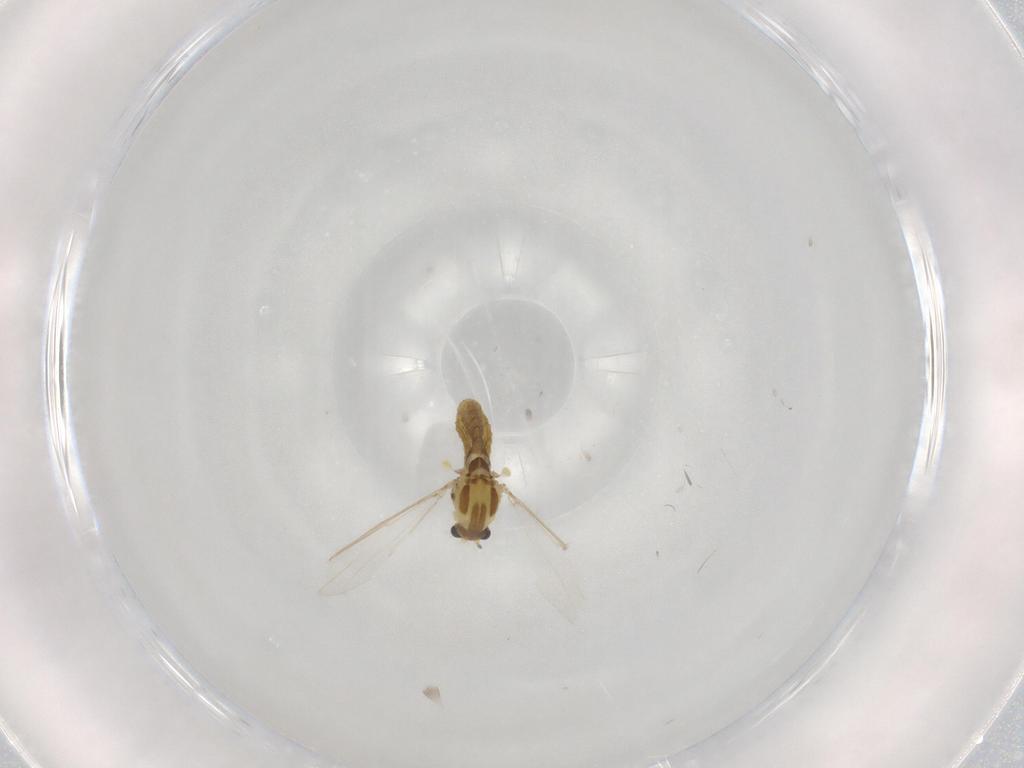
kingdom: Animalia
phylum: Arthropoda
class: Insecta
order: Diptera
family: Chironomidae
